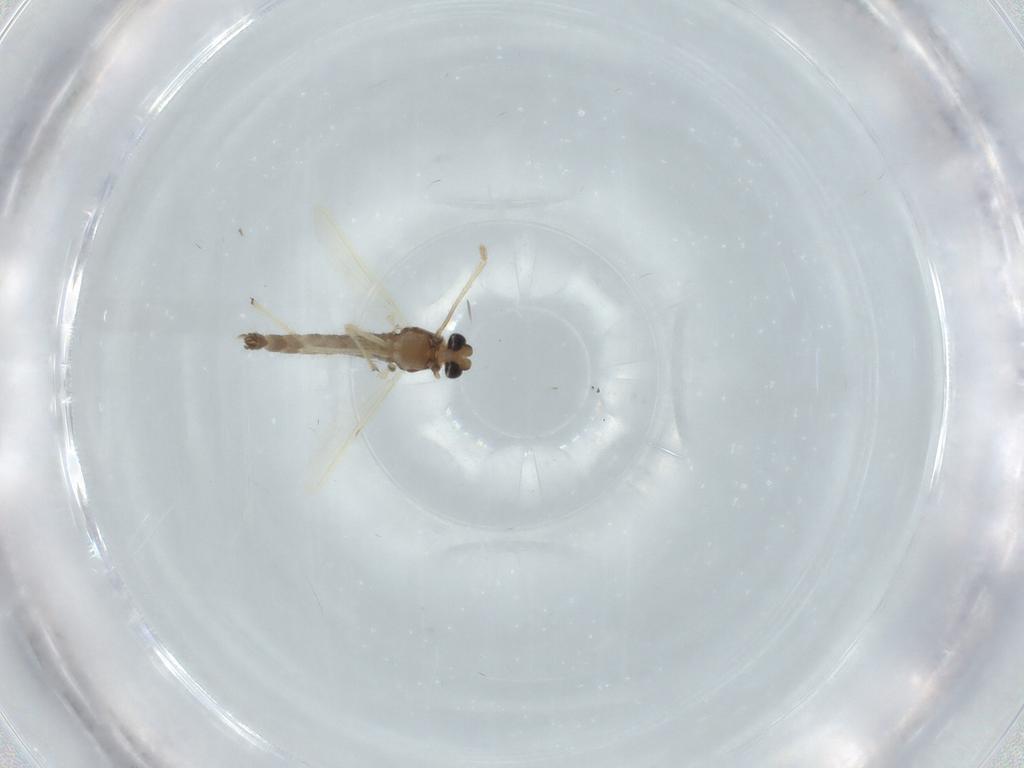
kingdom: Animalia
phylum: Arthropoda
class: Insecta
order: Diptera
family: Chironomidae
